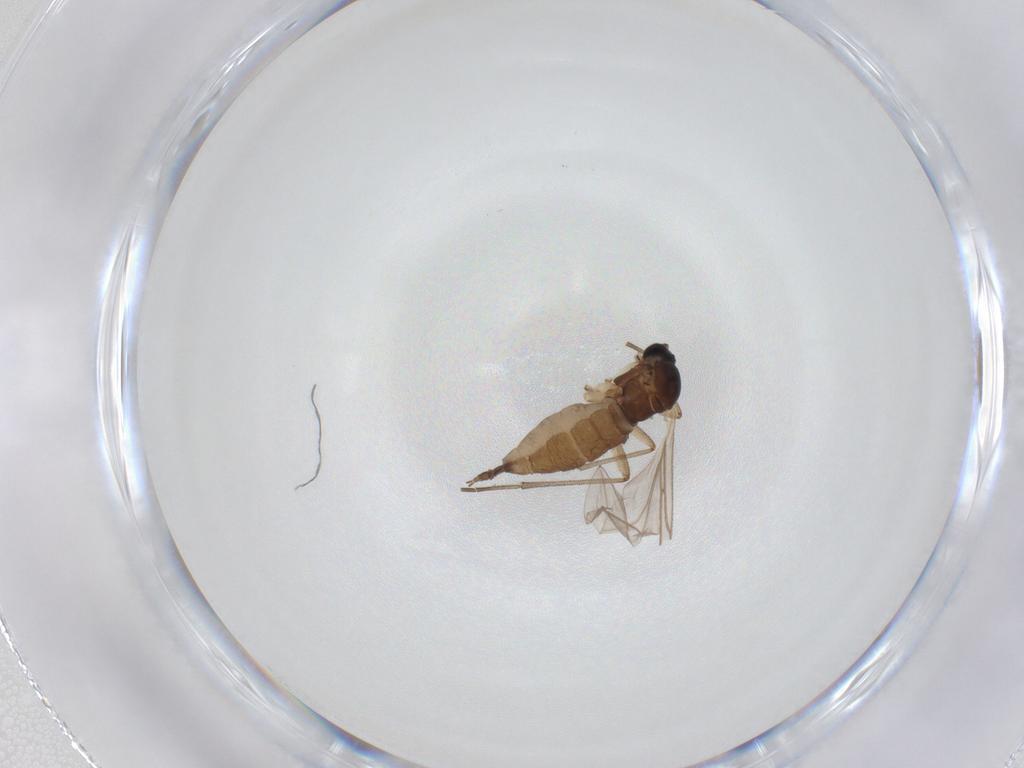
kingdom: Animalia
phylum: Arthropoda
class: Insecta
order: Diptera
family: Sciaridae
